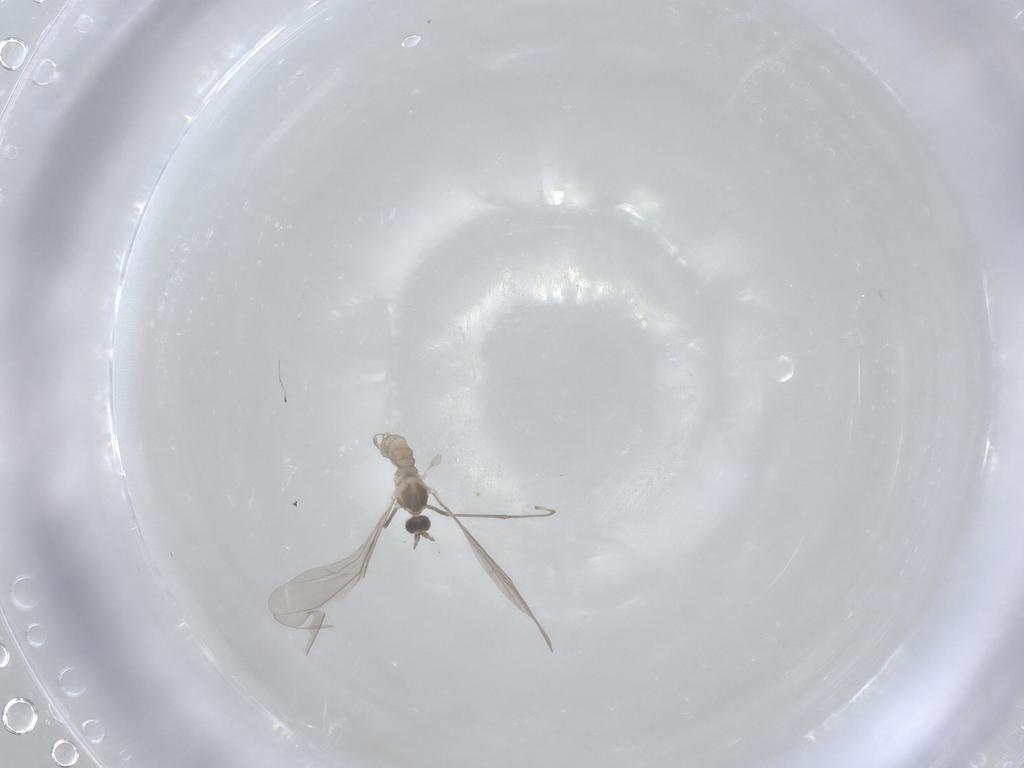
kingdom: Animalia
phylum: Arthropoda
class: Insecta
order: Diptera
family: Cecidomyiidae
